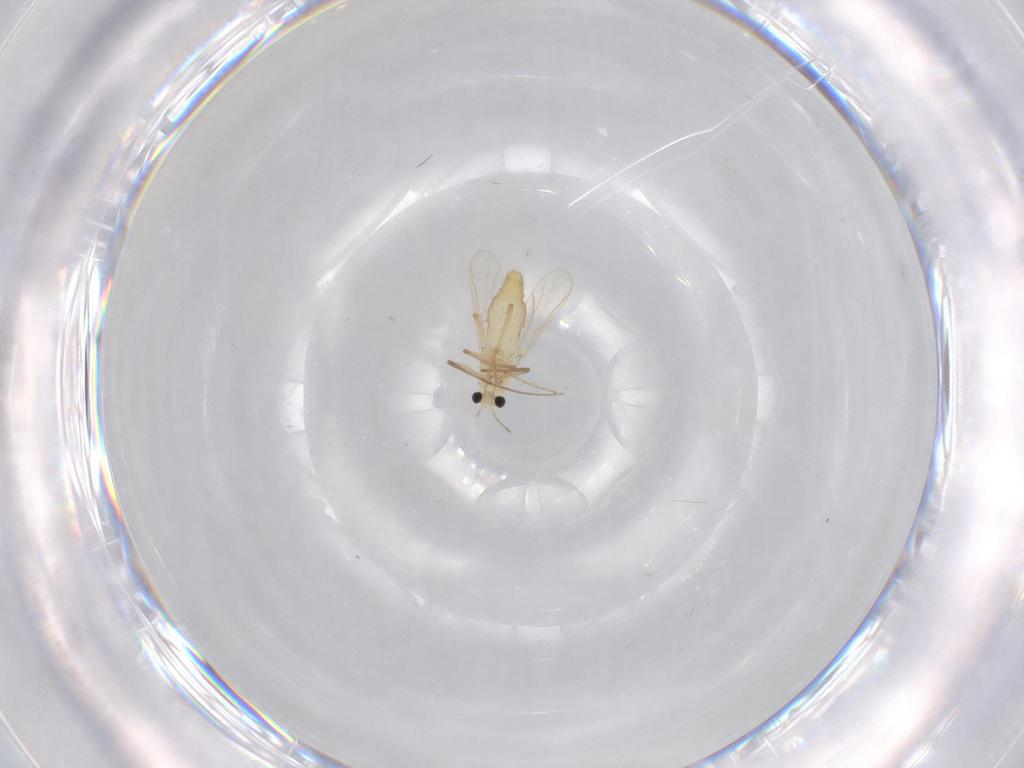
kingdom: Animalia
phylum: Arthropoda
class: Insecta
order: Diptera
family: Chironomidae
